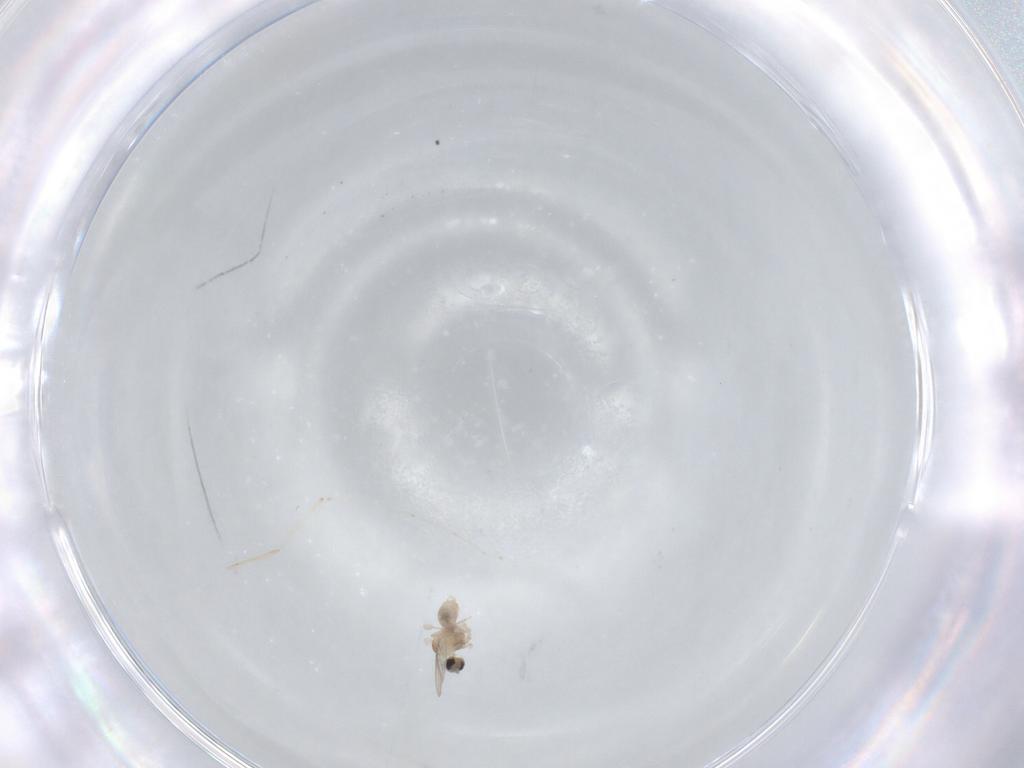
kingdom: Animalia
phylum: Arthropoda
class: Insecta
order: Diptera
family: Cecidomyiidae
